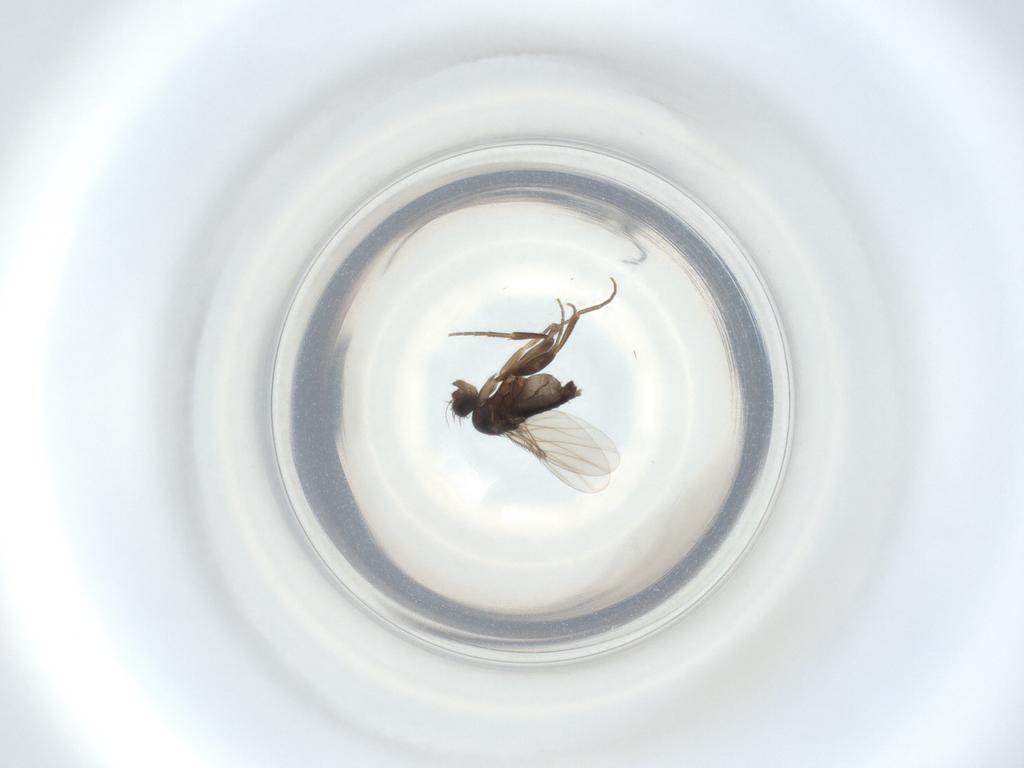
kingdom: Animalia
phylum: Arthropoda
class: Insecta
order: Diptera
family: Phoridae
